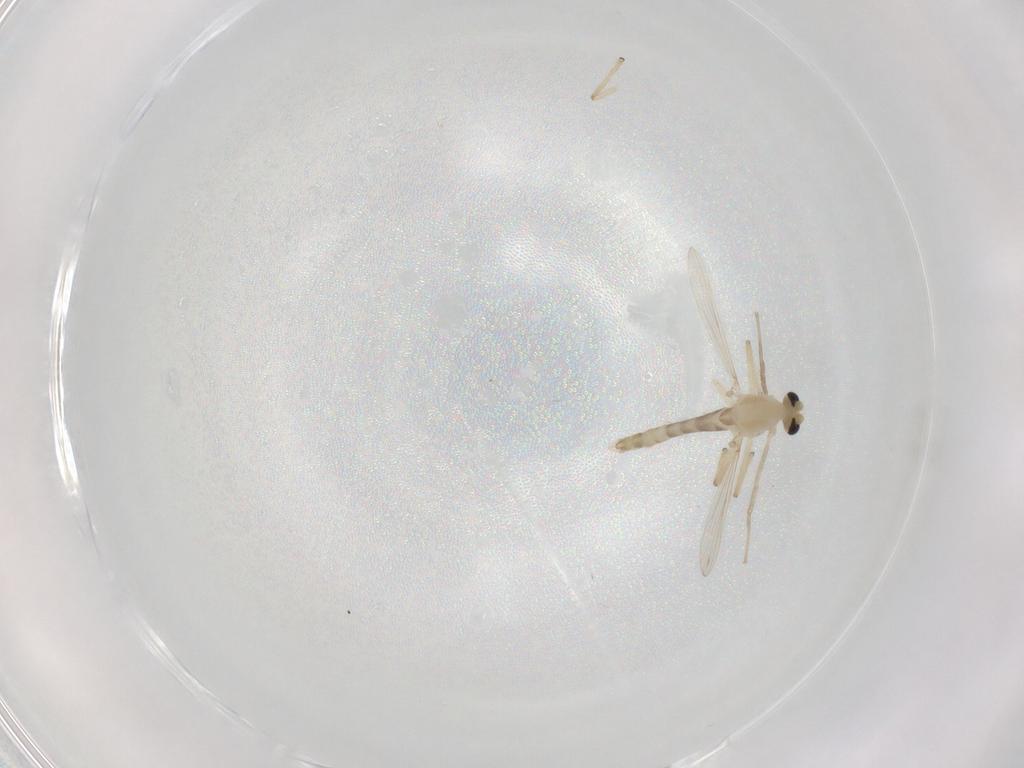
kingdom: Animalia
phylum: Arthropoda
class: Insecta
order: Diptera
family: Chironomidae
